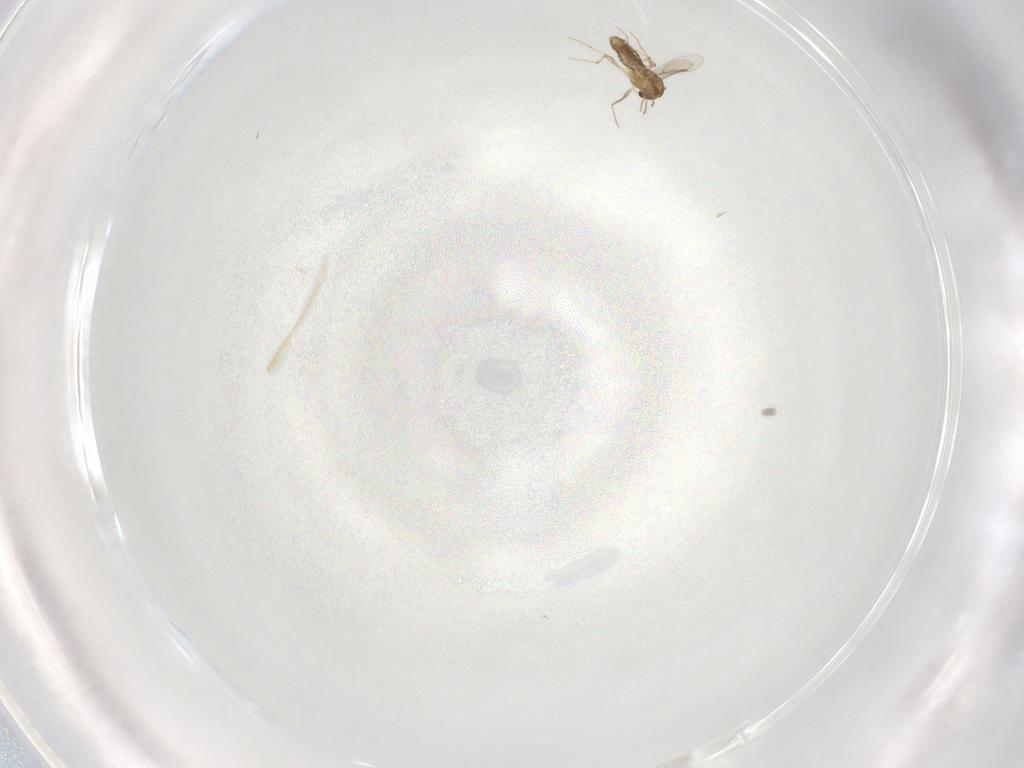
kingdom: Animalia
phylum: Arthropoda
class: Insecta
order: Diptera
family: Chironomidae
